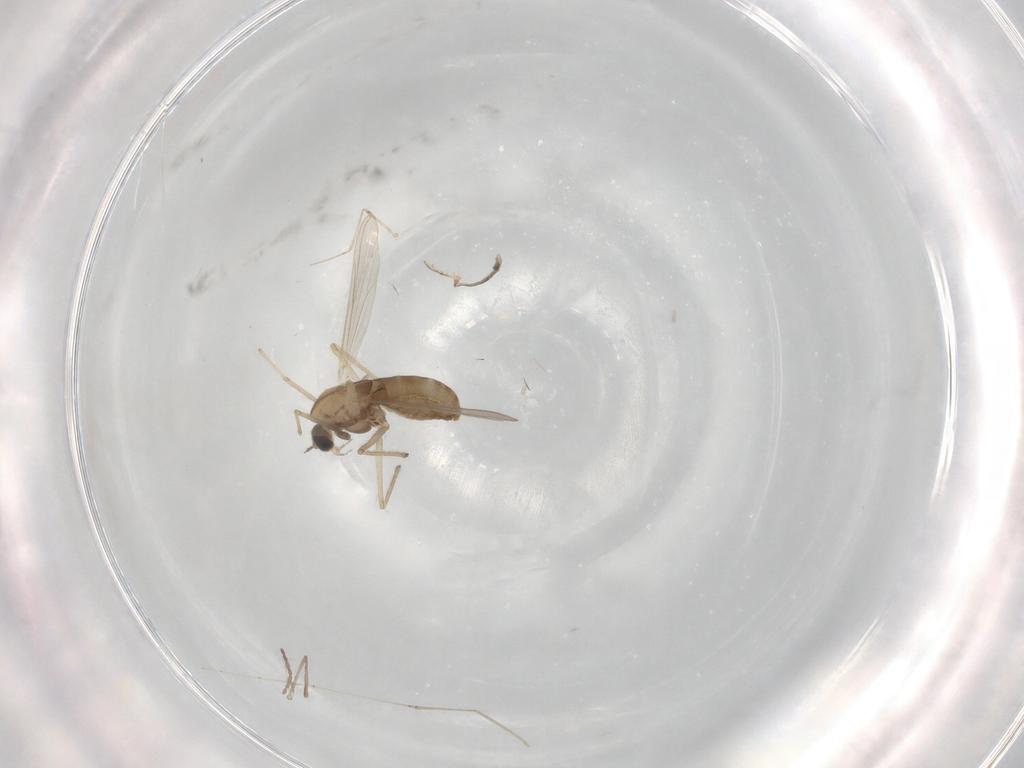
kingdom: Animalia
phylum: Arthropoda
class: Insecta
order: Diptera
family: Chironomidae
